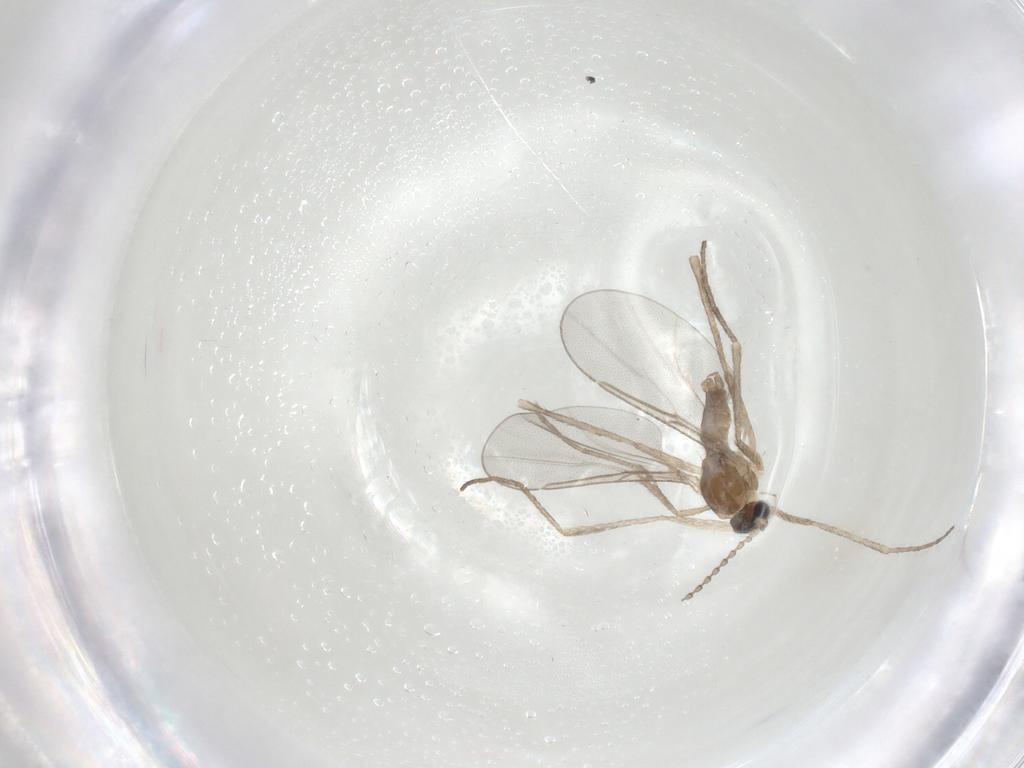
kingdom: Animalia
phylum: Arthropoda
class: Insecta
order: Diptera
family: Cecidomyiidae
